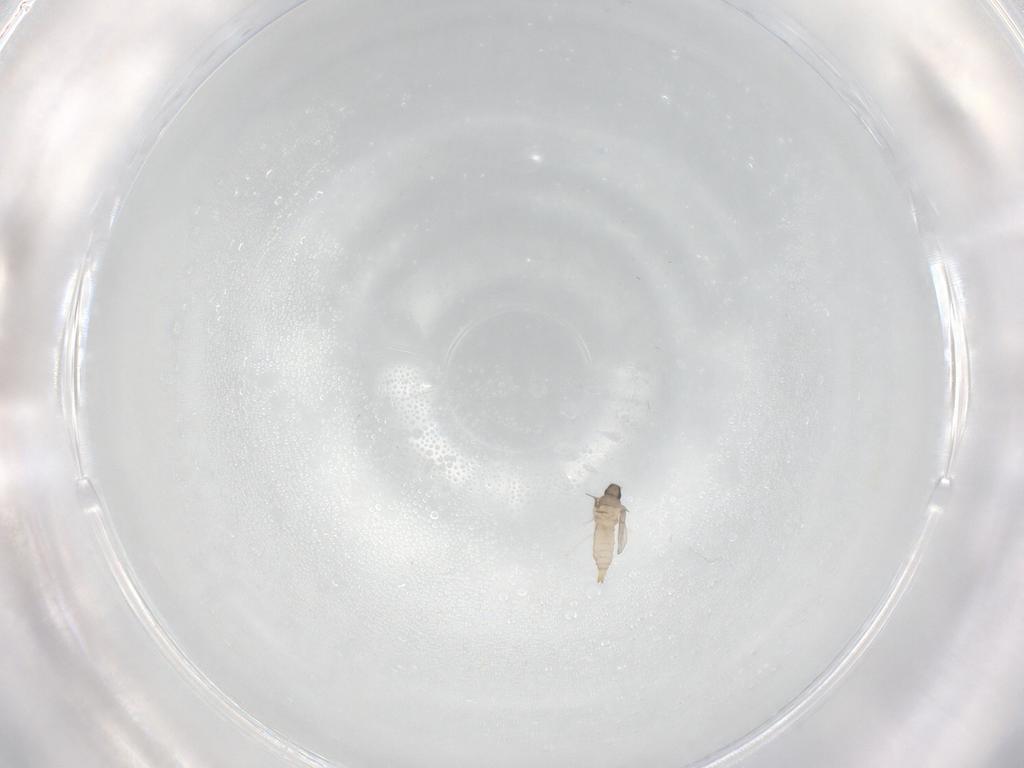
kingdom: Animalia
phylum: Arthropoda
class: Insecta
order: Diptera
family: Cecidomyiidae
